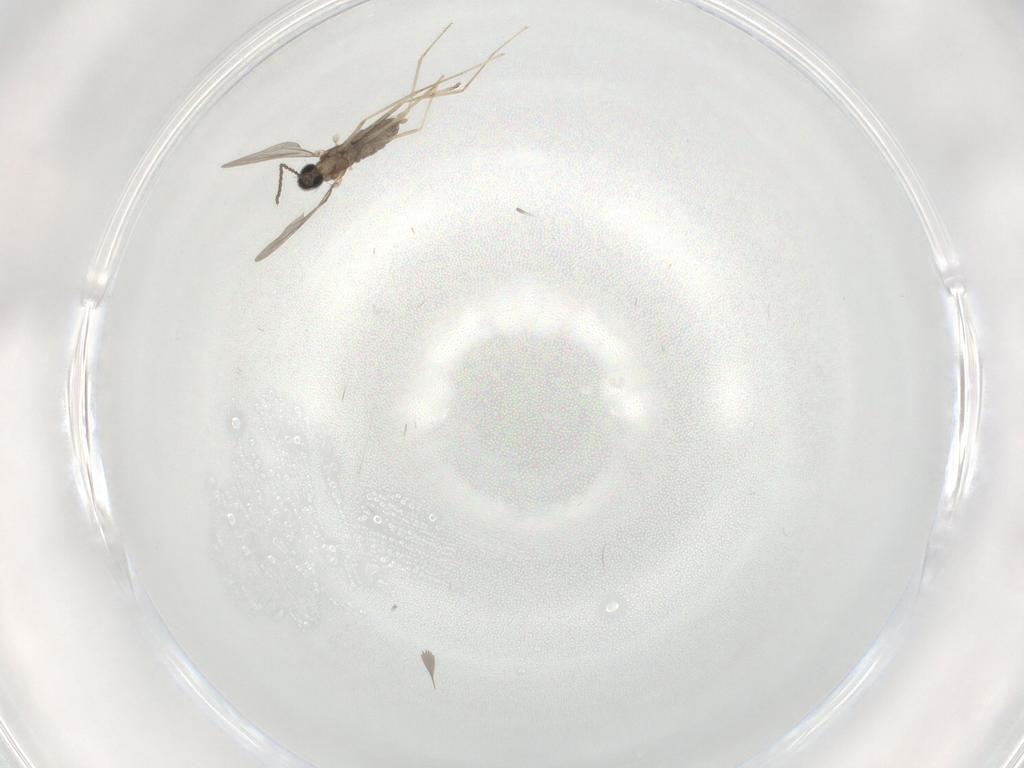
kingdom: Animalia
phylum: Arthropoda
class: Insecta
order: Diptera
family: Cecidomyiidae
